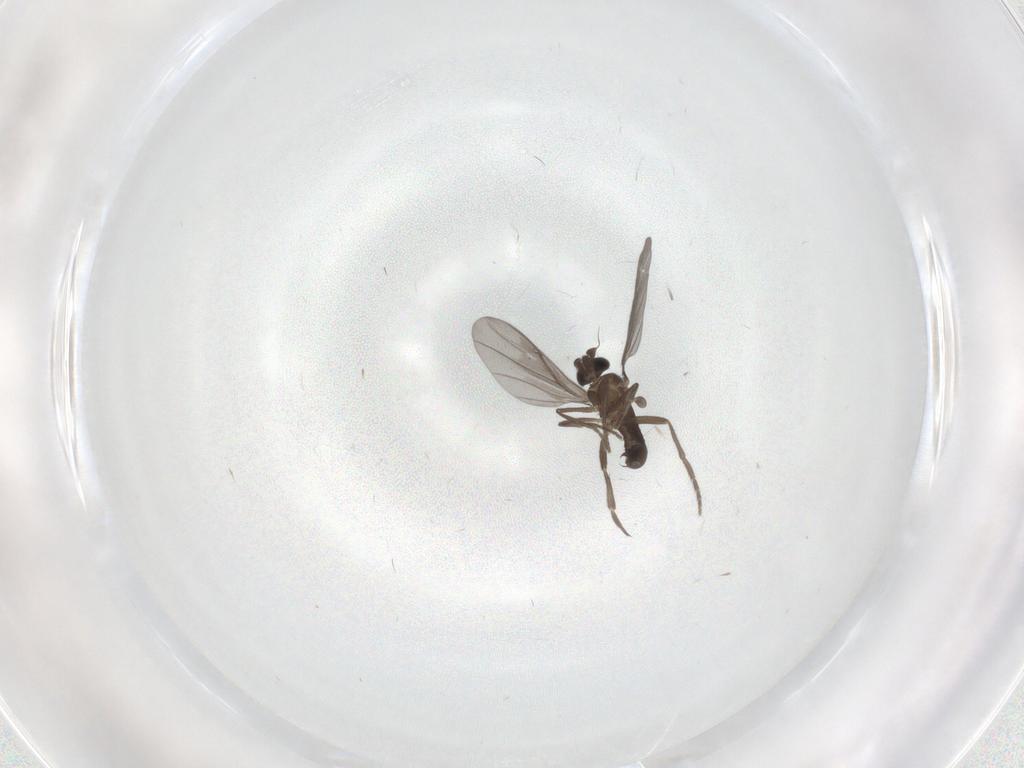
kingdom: Animalia
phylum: Arthropoda
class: Insecta
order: Diptera
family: Phoridae
